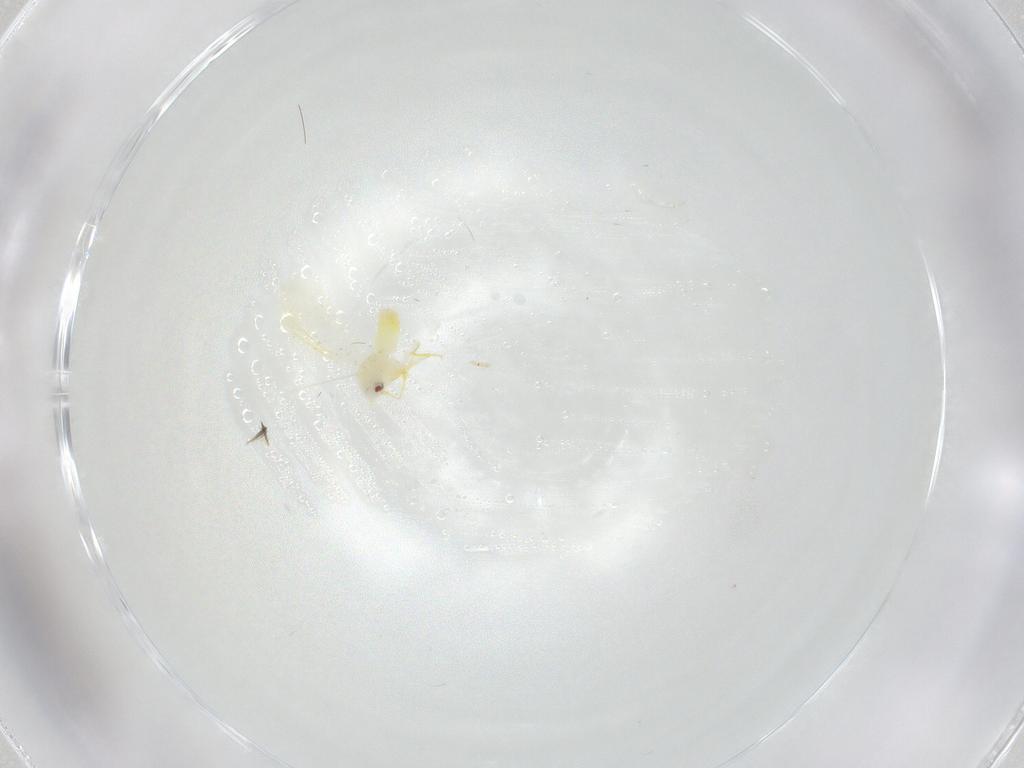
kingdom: Animalia
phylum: Arthropoda
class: Insecta
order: Hemiptera
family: Aleyrodidae
